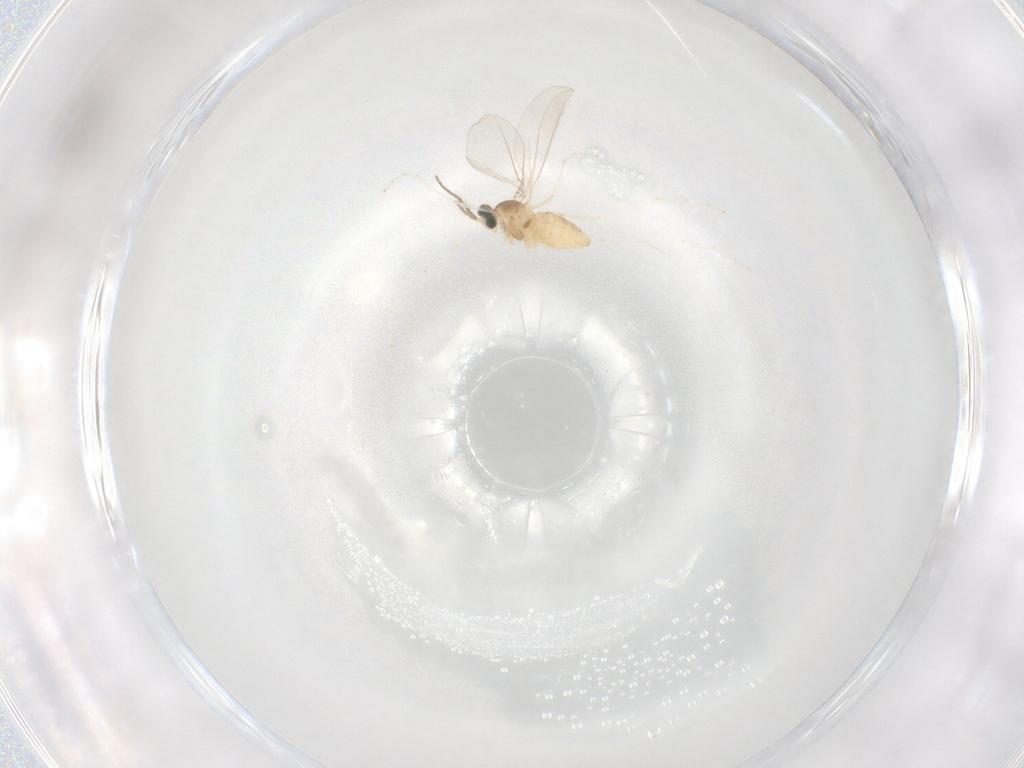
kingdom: Animalia
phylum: Arthropoda
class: Insecta
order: Diptera
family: Cecidomyiidae
